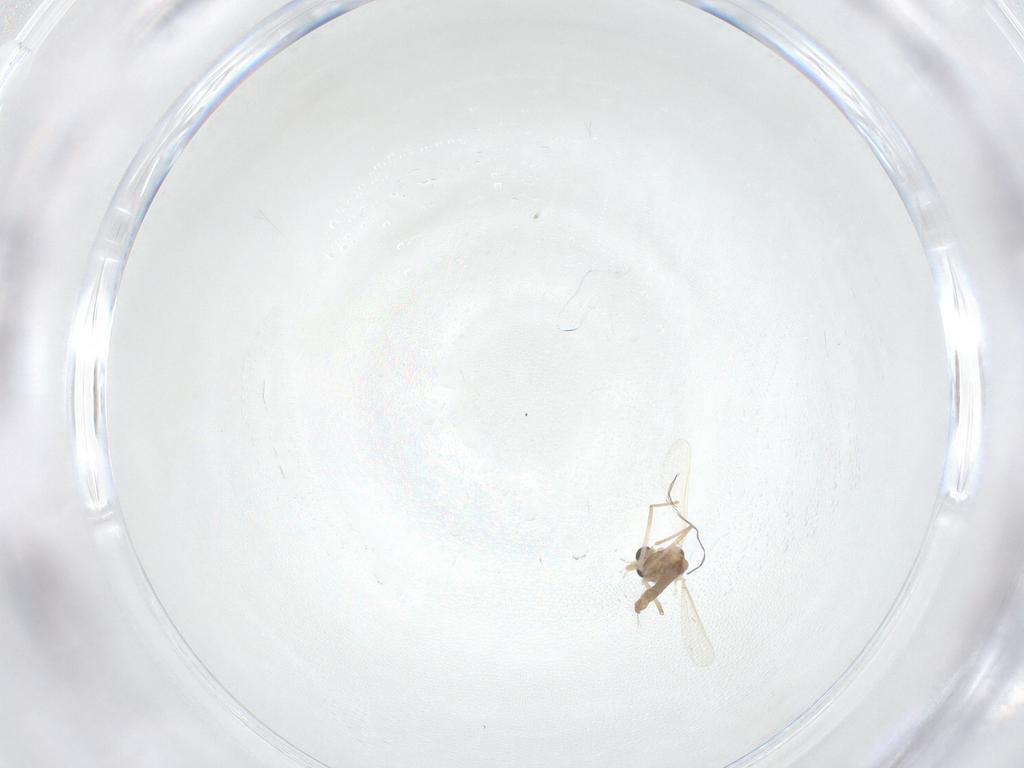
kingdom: Animalia
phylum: Arthropoda
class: Insecta
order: Diptera
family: Chironomidae
